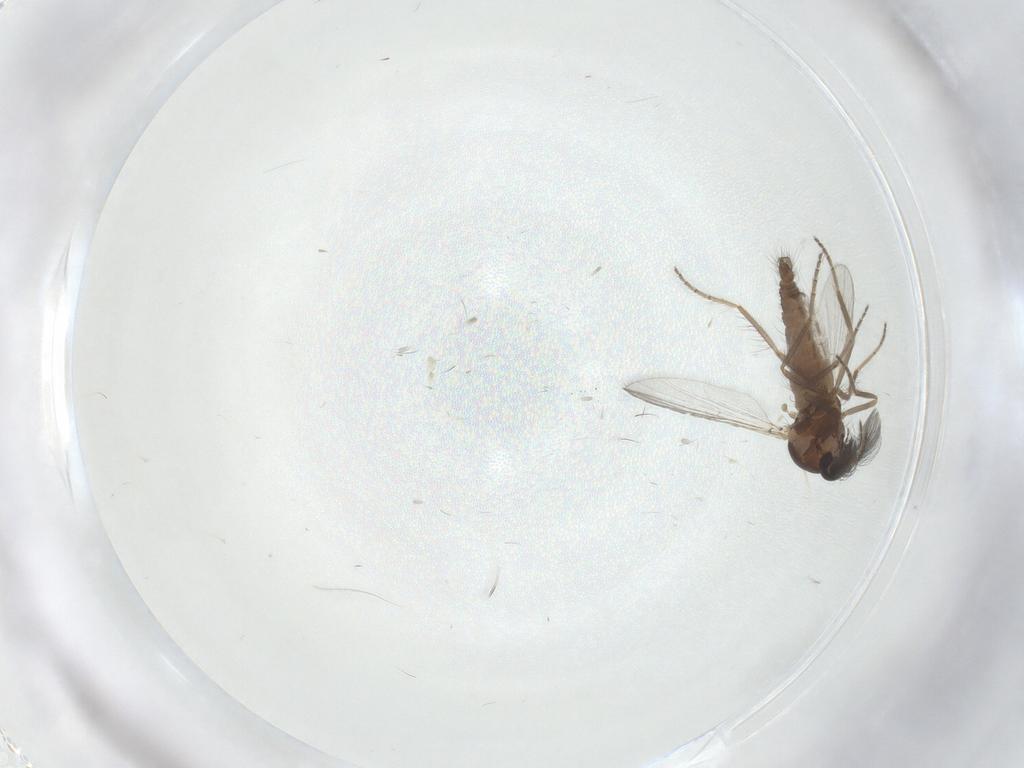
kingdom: Animalia
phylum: Arthropoda
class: Insecta
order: Diptera
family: Ceratopogonidae
